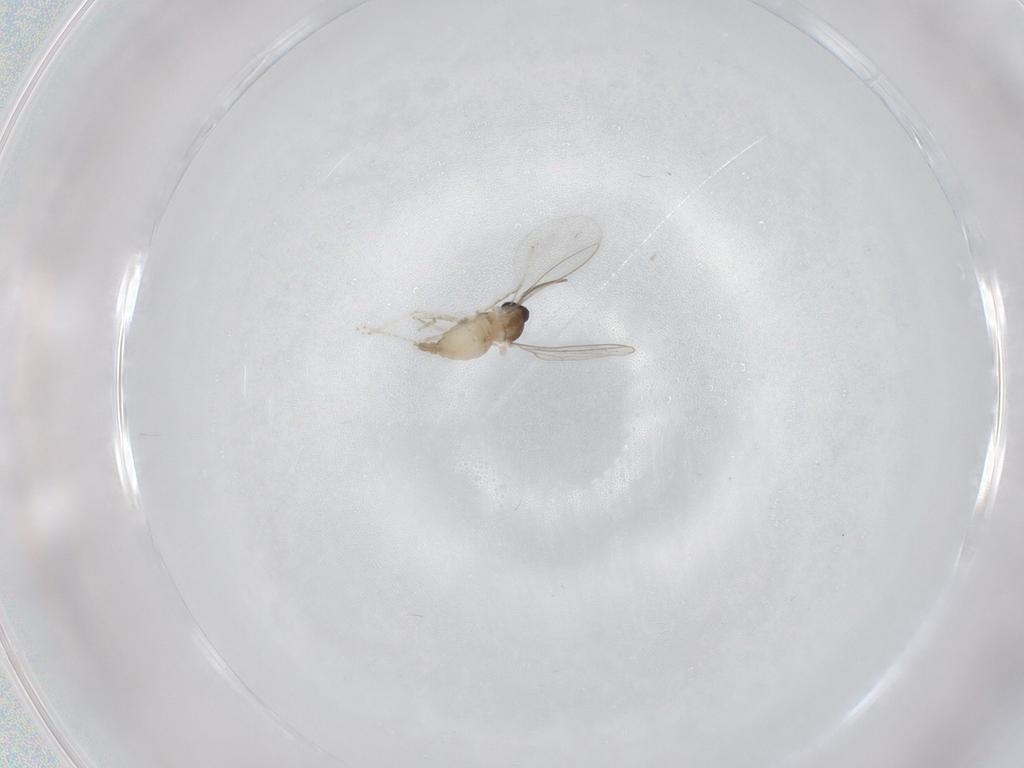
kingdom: Animalia
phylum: Arthropoda
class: Insecta
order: Diptera
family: Cecidomyiidae
